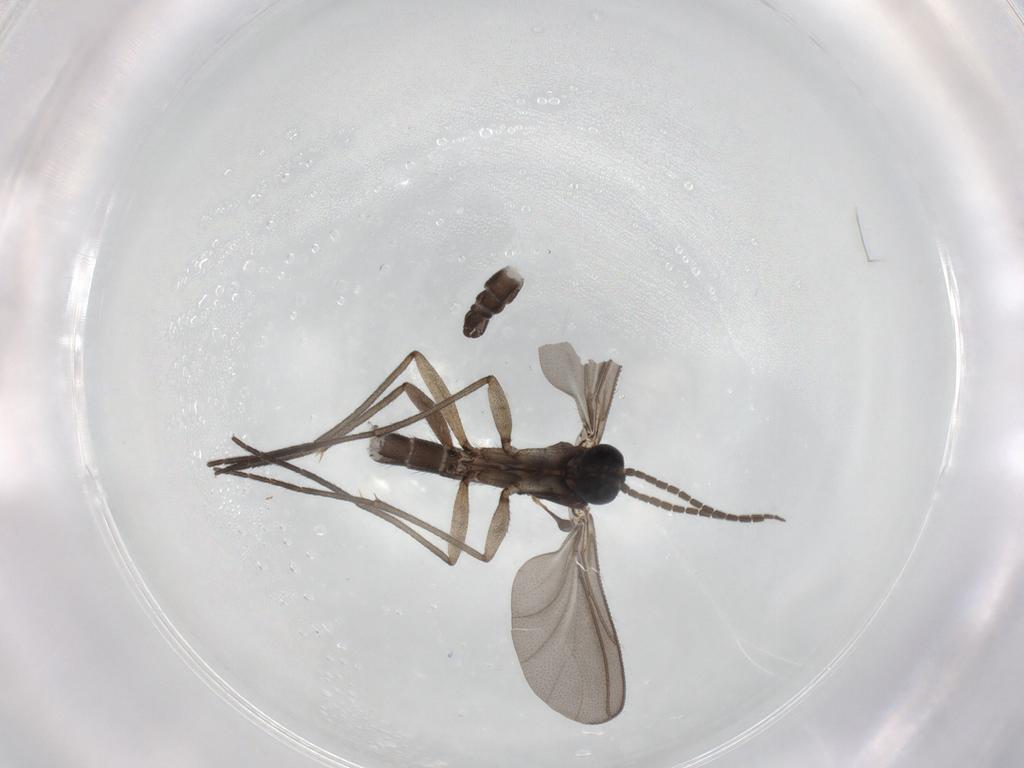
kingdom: Animalia
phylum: Arthropoda
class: Insecta
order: Diptera
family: Sciaridae
